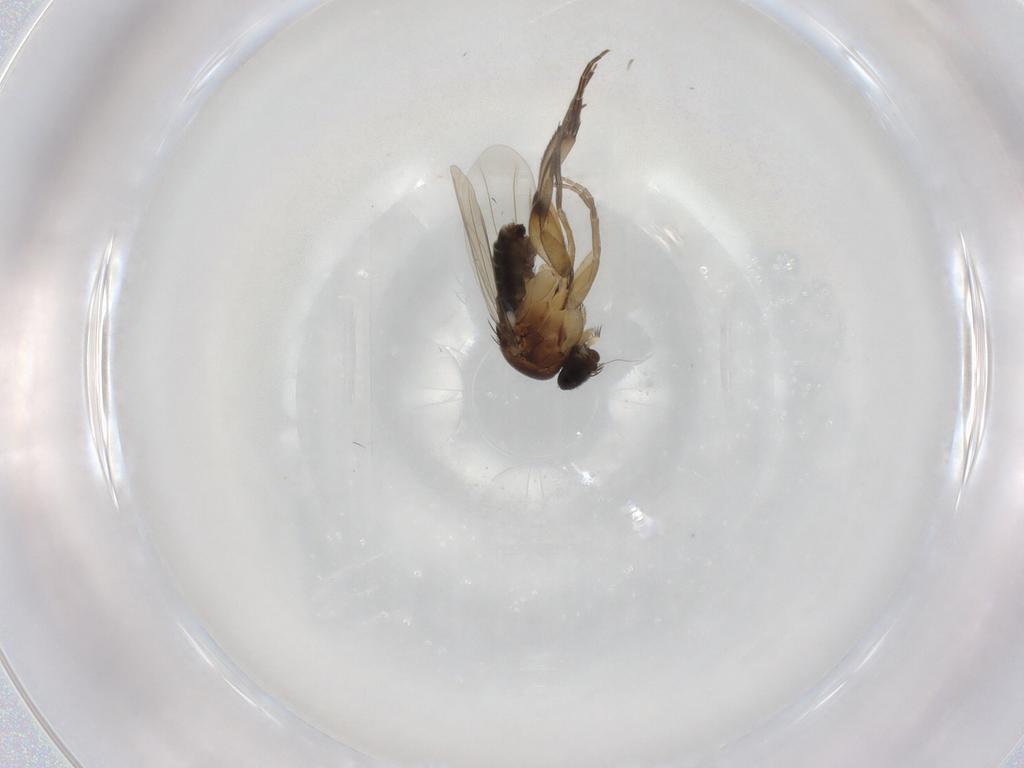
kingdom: Animalia
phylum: Arthropoda
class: Insecta
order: Diptera
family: Phoridae
